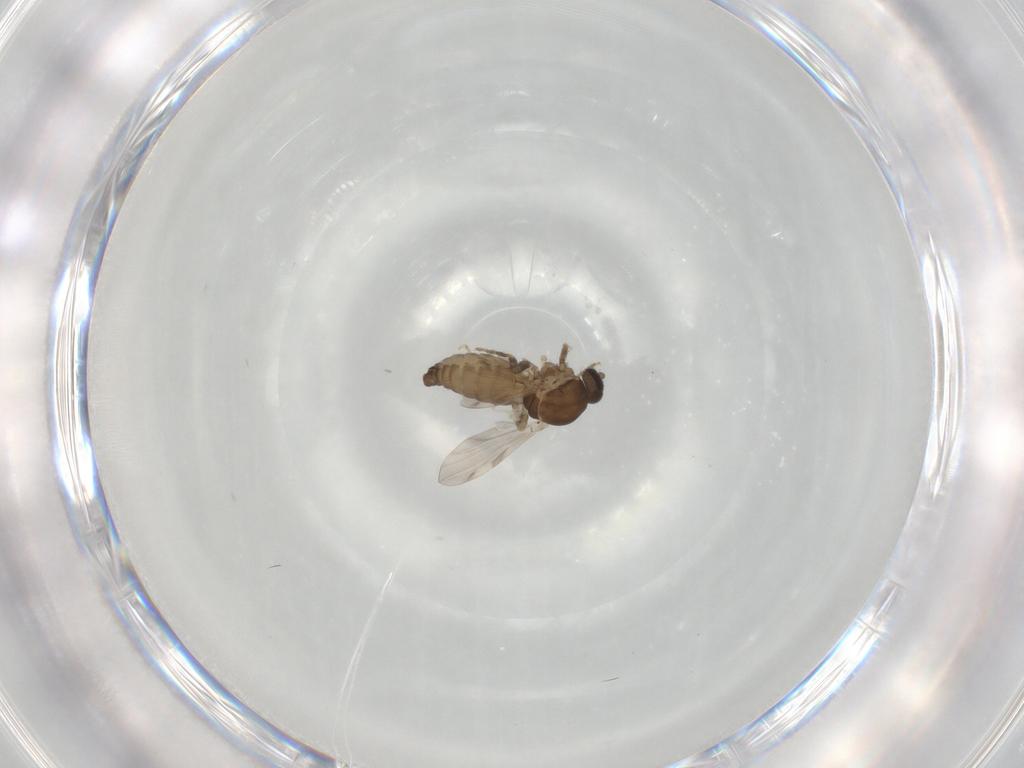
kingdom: Animalia
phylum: Arthropoda
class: Insecta
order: Diptera
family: Ceratopogonidae
